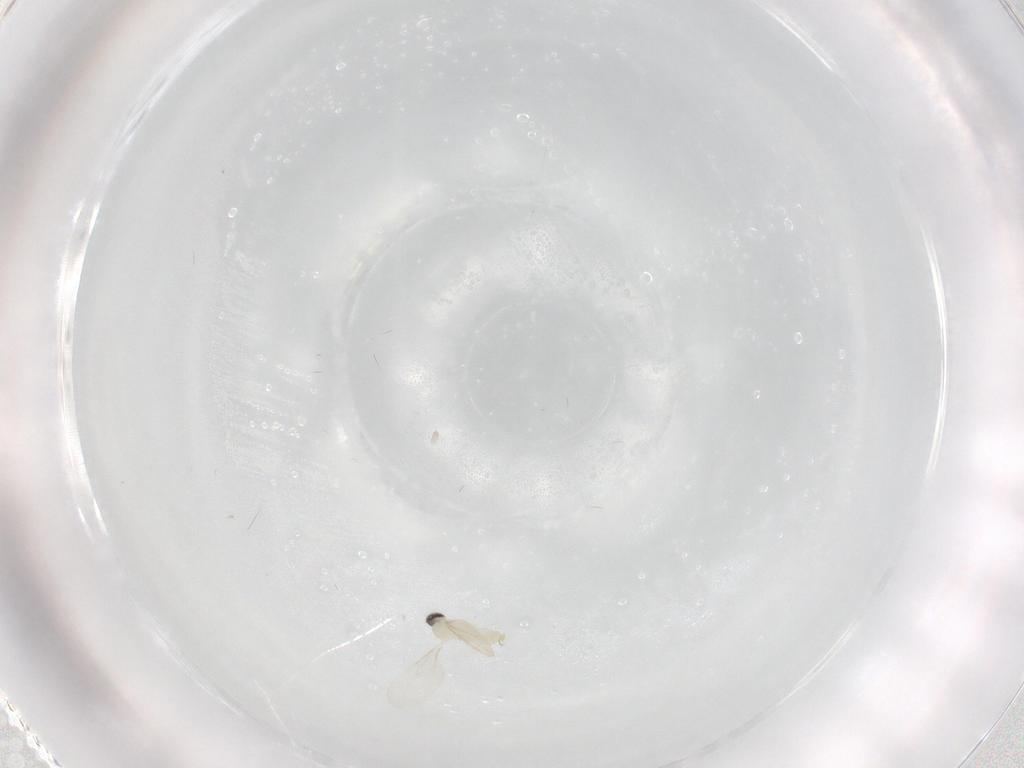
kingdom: Animalia
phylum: Arthropoda
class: Insecta
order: Diptera
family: Cecidomyiidae
